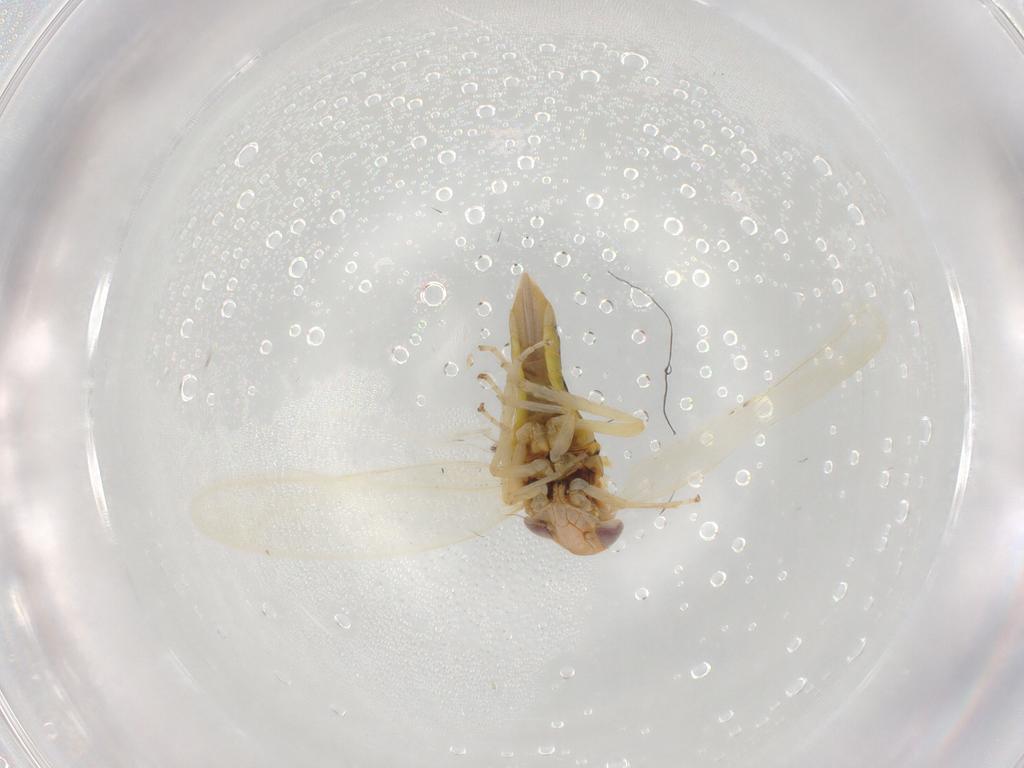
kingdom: Animalia
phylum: Arthropoda
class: Insecta
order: Hemiptera
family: Cicadellidae
